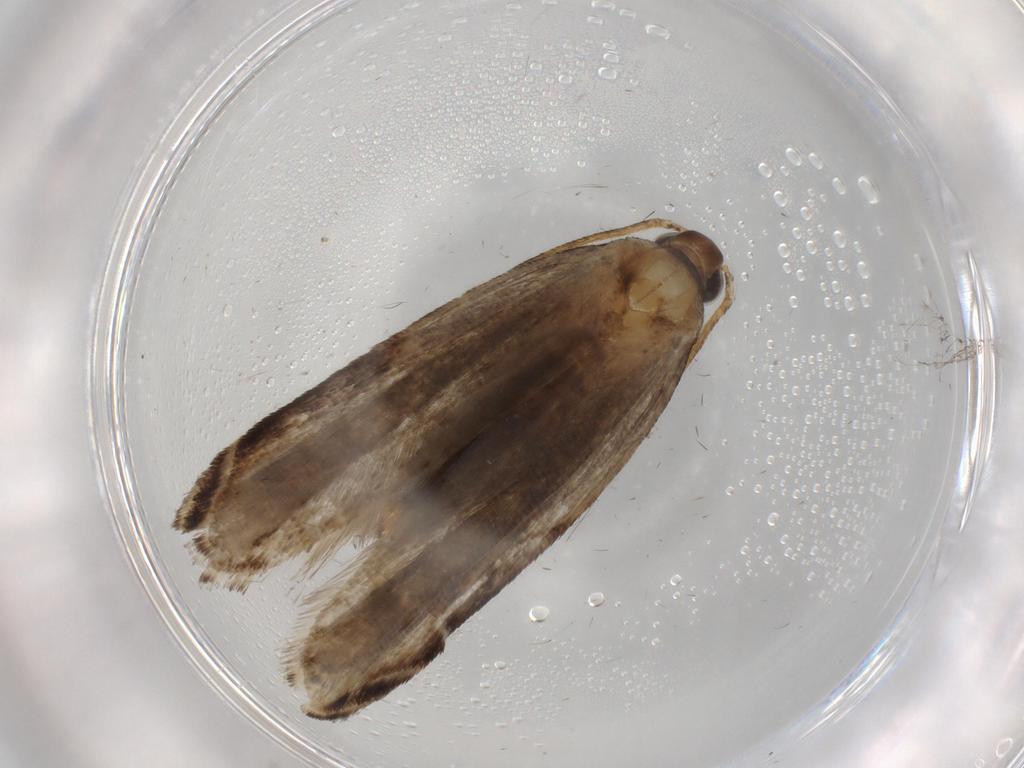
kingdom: Animalia
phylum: Arthropoda
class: Insecta
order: Lepidoptera
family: Gelechiidae
